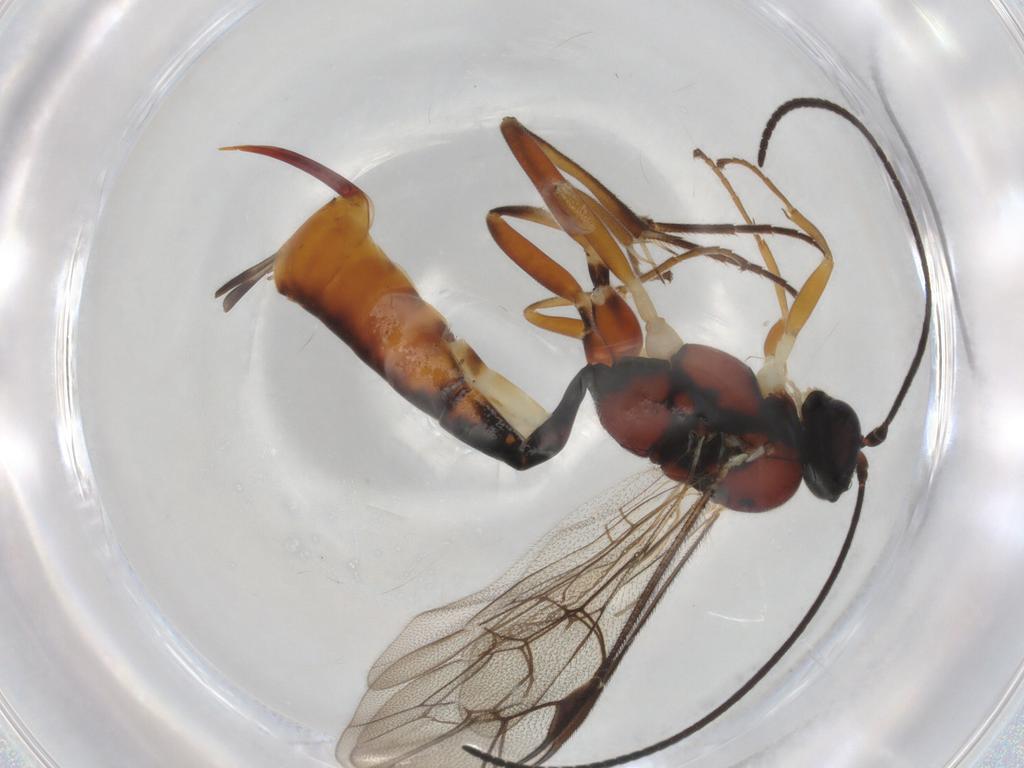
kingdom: Animalia
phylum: Arthropoda
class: Insecta
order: Hymenoptera
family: Ichneumonidae
